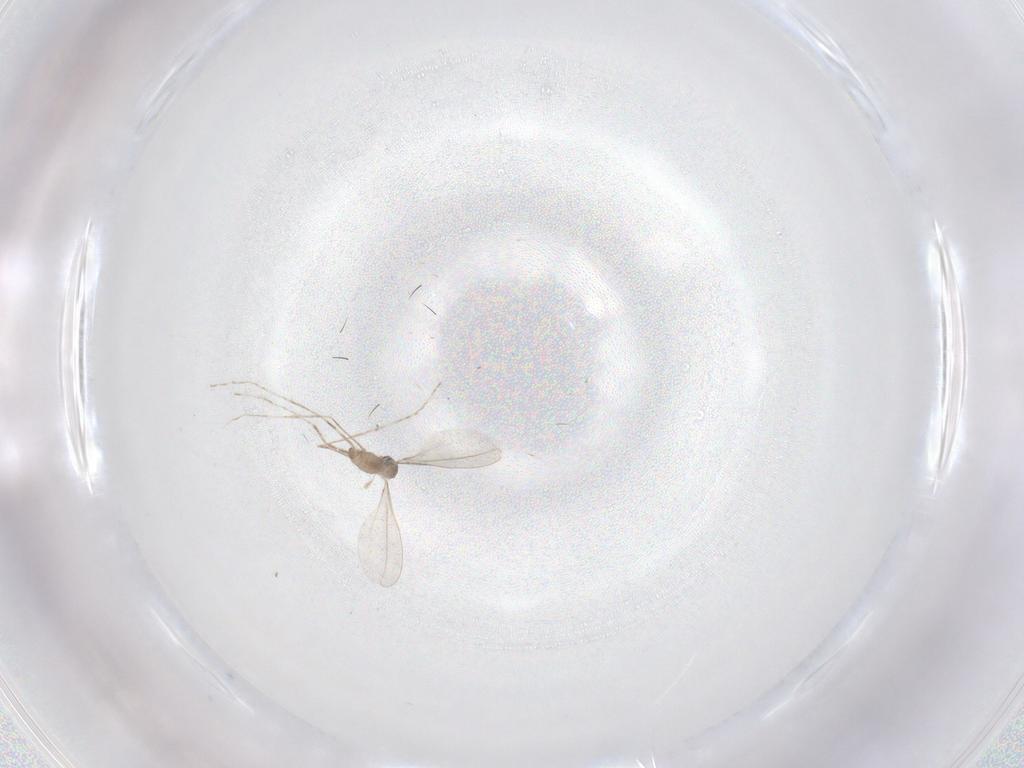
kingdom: Animalia
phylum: Arthropoda
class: Insecta
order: Diptera
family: Cecidomyiidae
